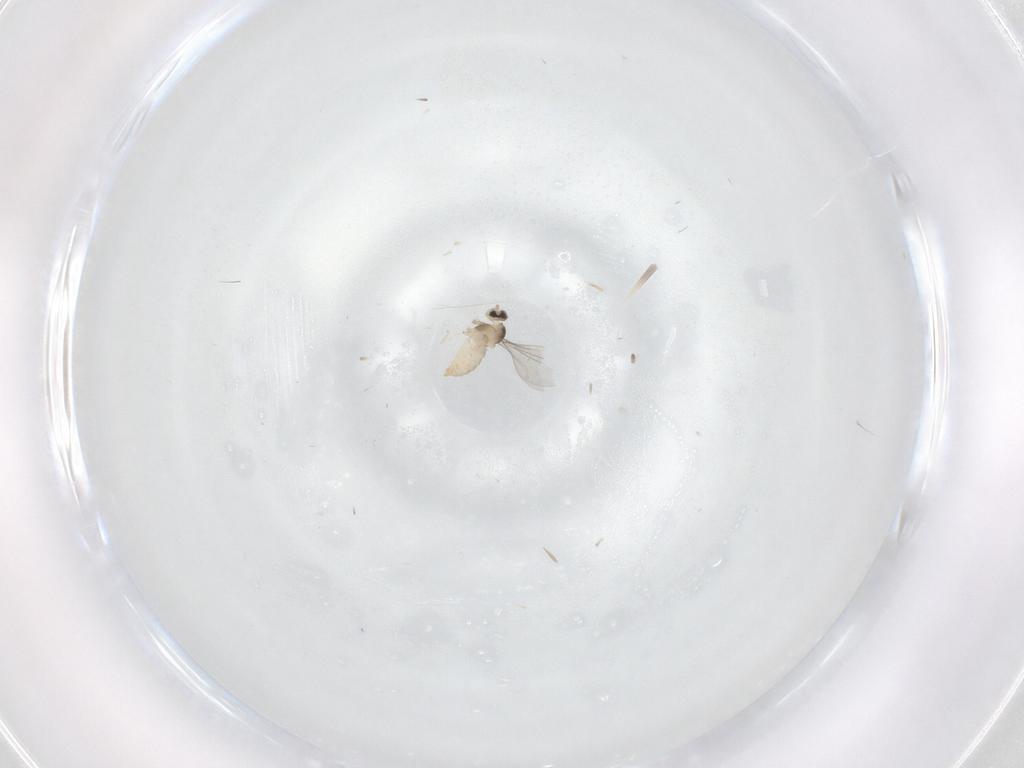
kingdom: Animalia
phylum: Arthropoda
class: Insecta
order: Diptera
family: Cecidomyiidae
